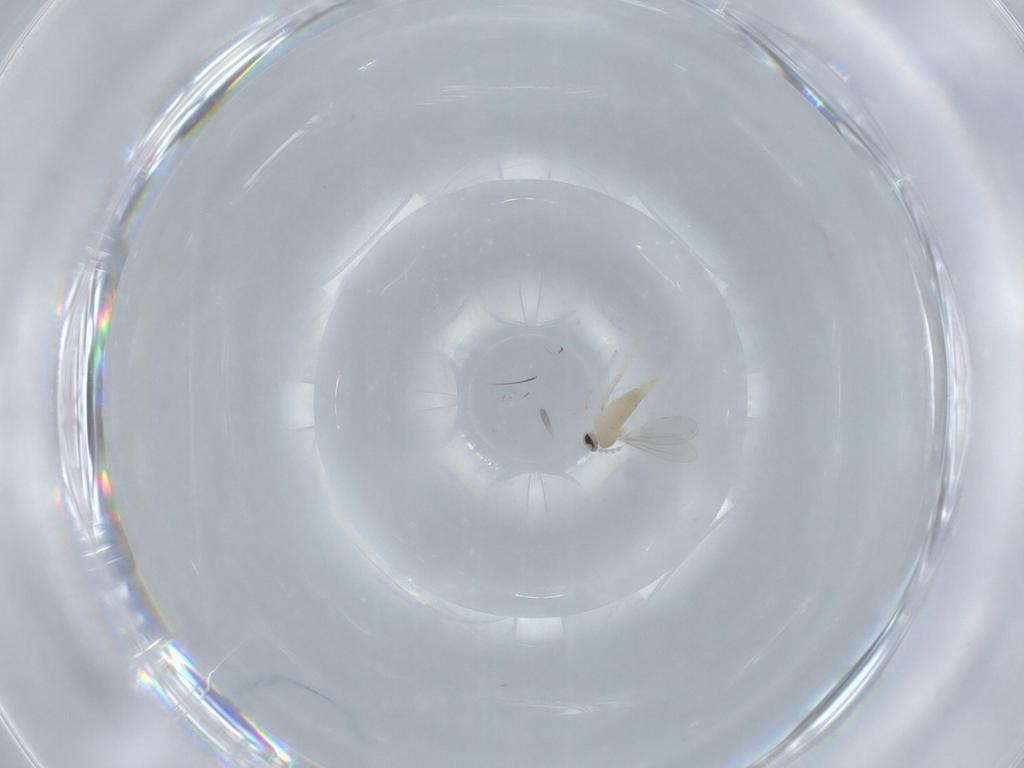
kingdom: Animalia
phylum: Arthropoda
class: Insecta
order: Diptera
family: Cecidomyiidae
